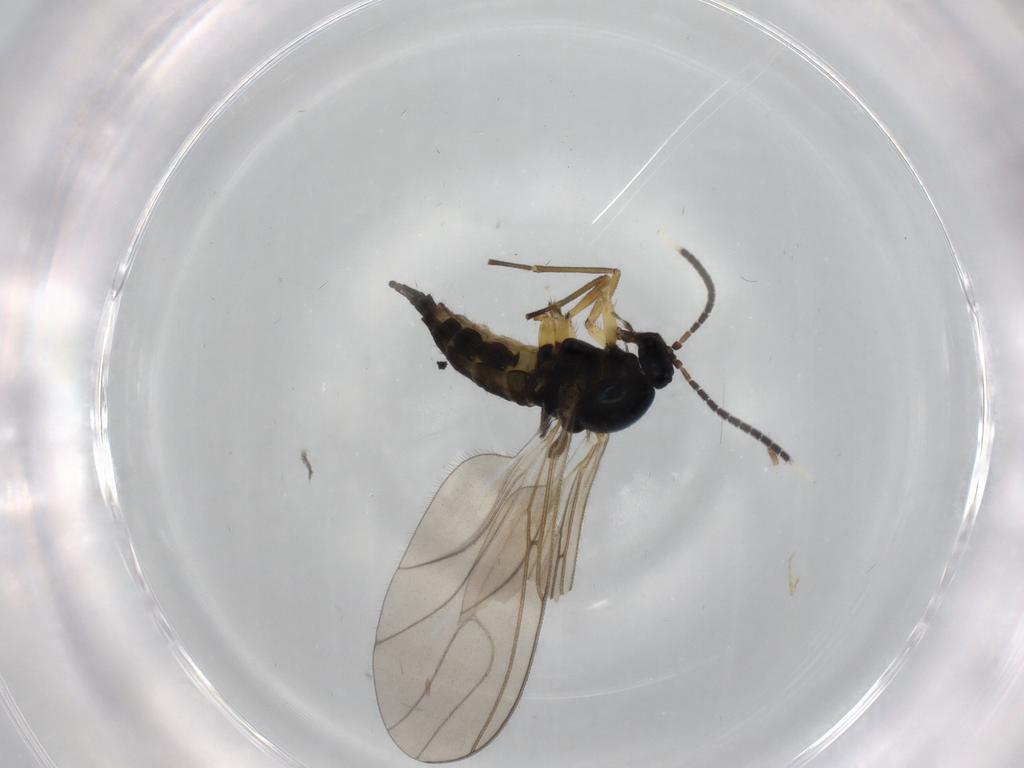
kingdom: Animalia
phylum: Arthropoda
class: Insecta
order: Diptera
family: Sciaridae
